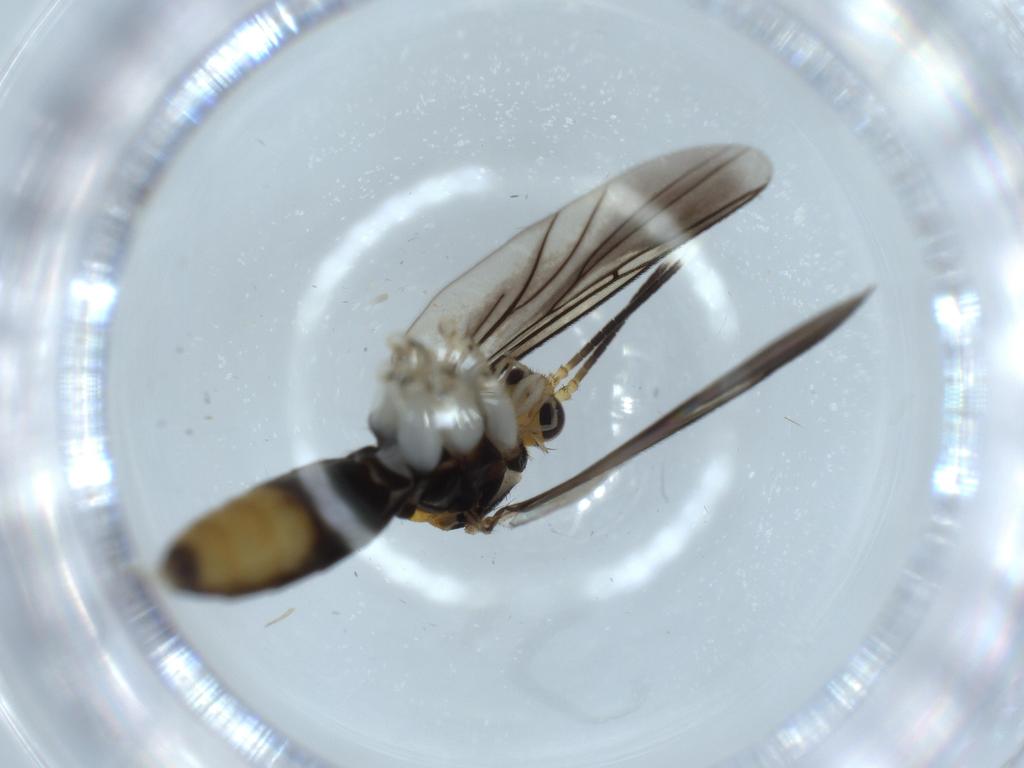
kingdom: Animalia
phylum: Arthropoda
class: Insecta
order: Diptera
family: Mycetophilidae
